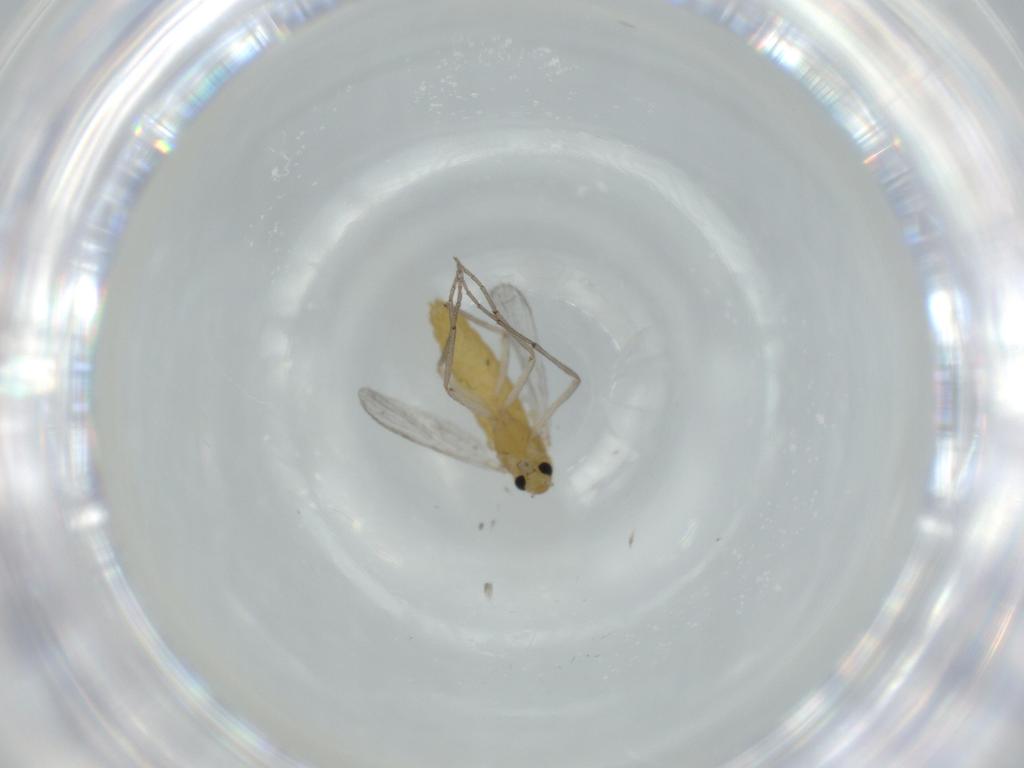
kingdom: Animalia
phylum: Arthropoda
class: Insecta
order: Diptera
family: Chironomidae
